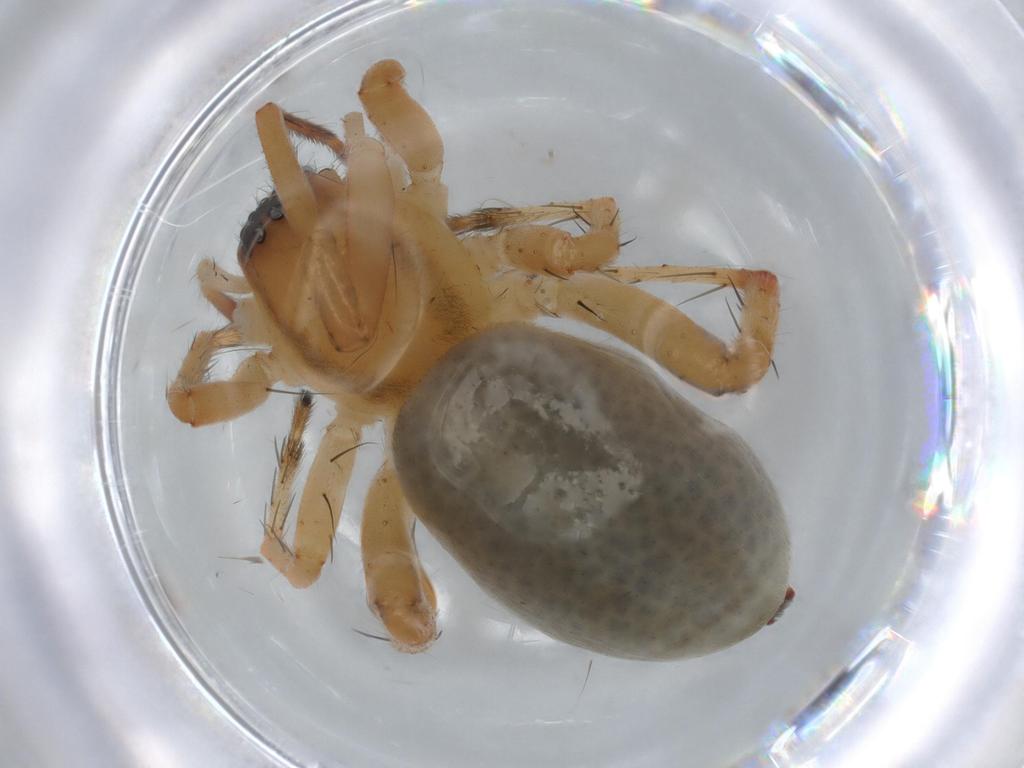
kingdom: Animalia
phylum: Arthropoda
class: Arachnida
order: Araneae
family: Anyphaenidae
